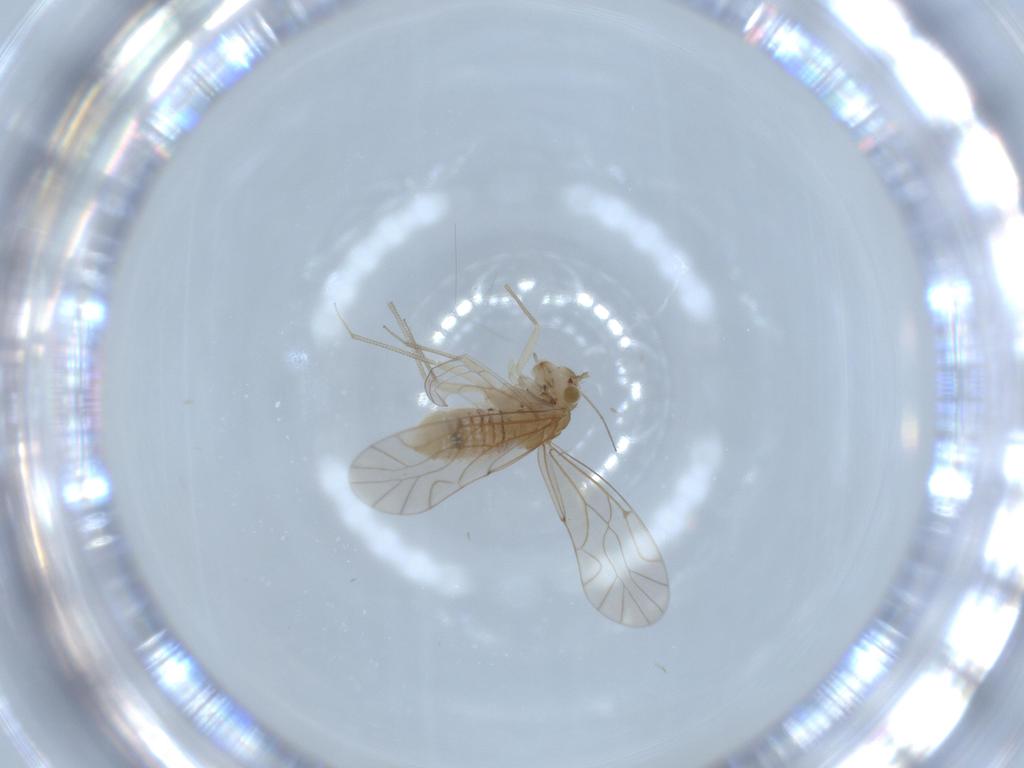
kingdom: Animalia
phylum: Arthropoda
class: Insecta
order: Psocodea
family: Lachesillidae
